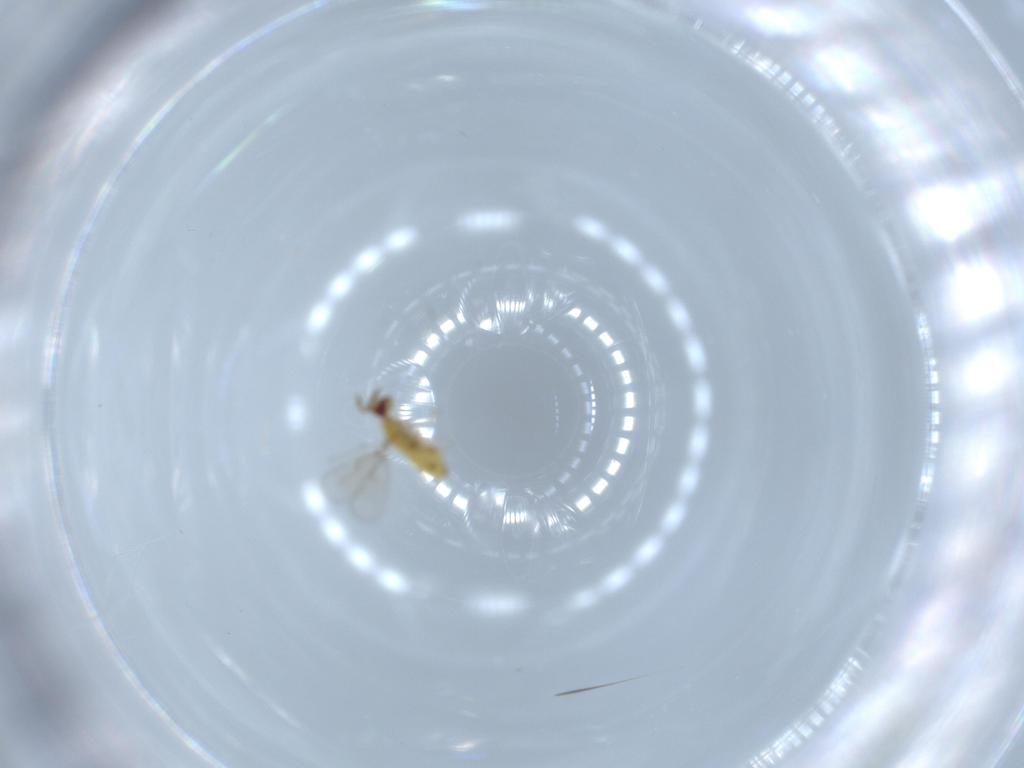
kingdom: Animalia
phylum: Arthropoda
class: Insecta
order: Hymenoptera
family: Trichogrammatidae
